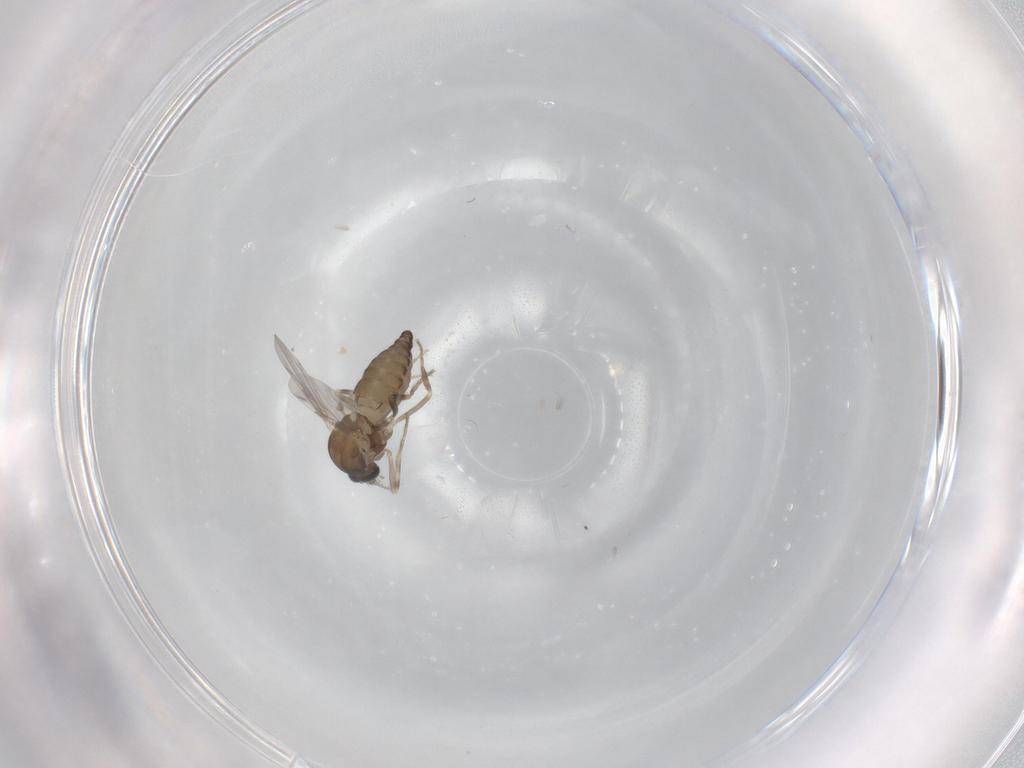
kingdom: Animalia
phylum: Arthropoda
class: Insecta
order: Diptera
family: Ceratopogonidae
